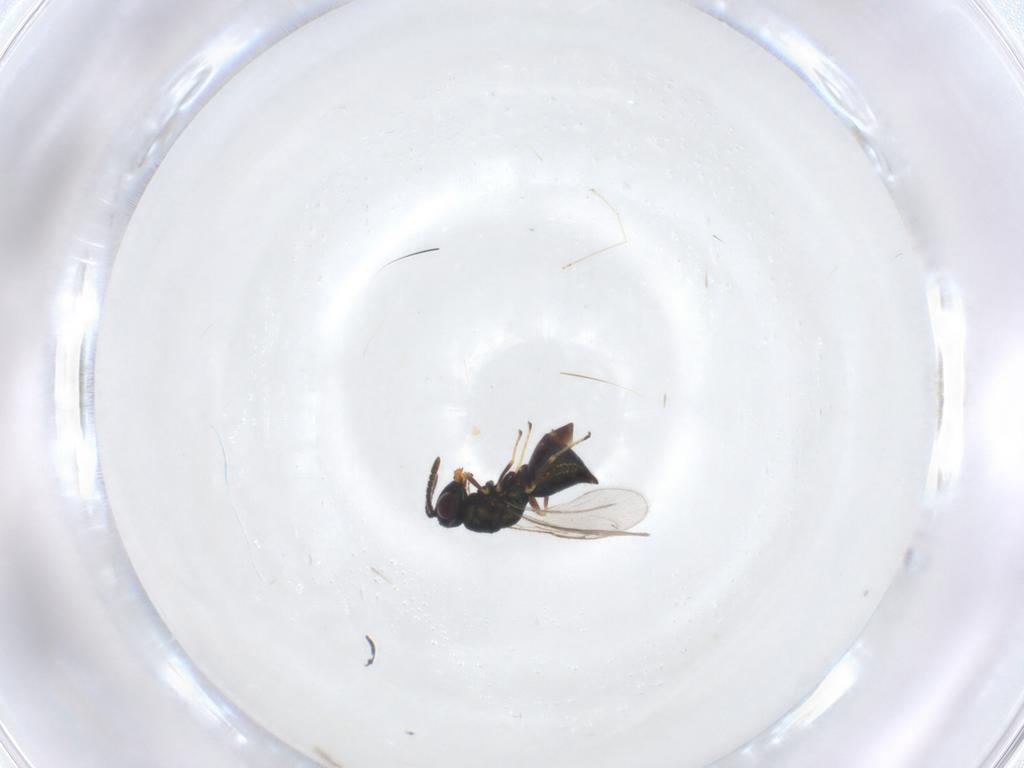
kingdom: Animalia
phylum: Arthropoda
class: Insecta
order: Hymenoptera
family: Pteromalidae
